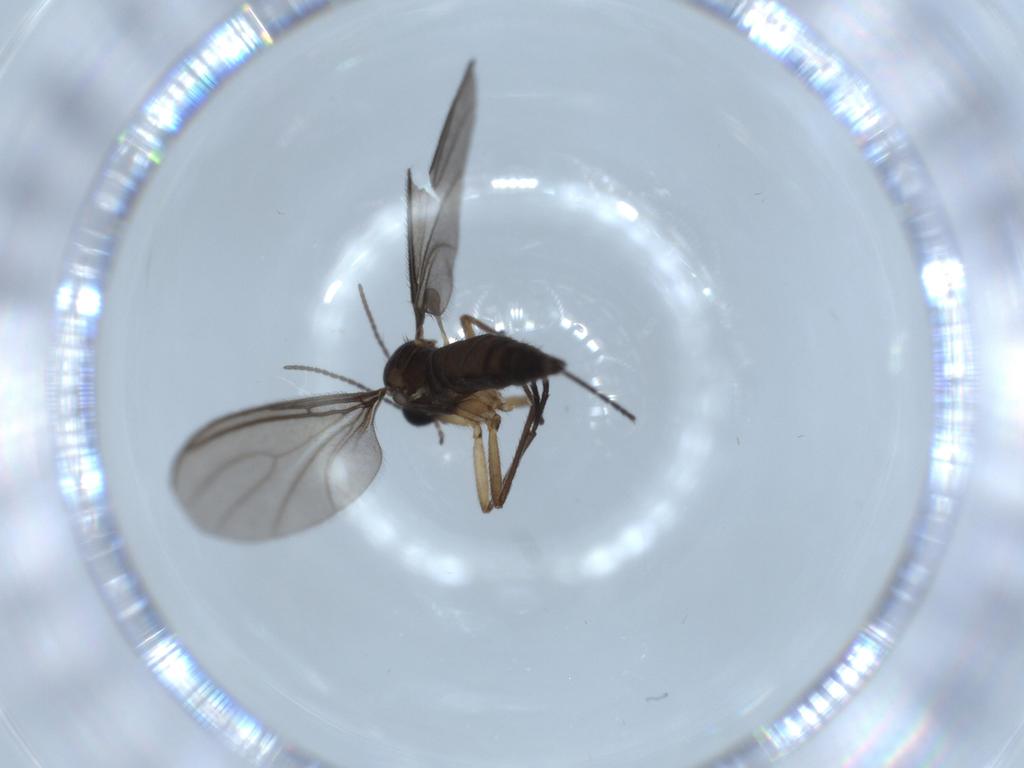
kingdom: Animalia
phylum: Arthropoda
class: Insecta
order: Diptera
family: Sciaridae
